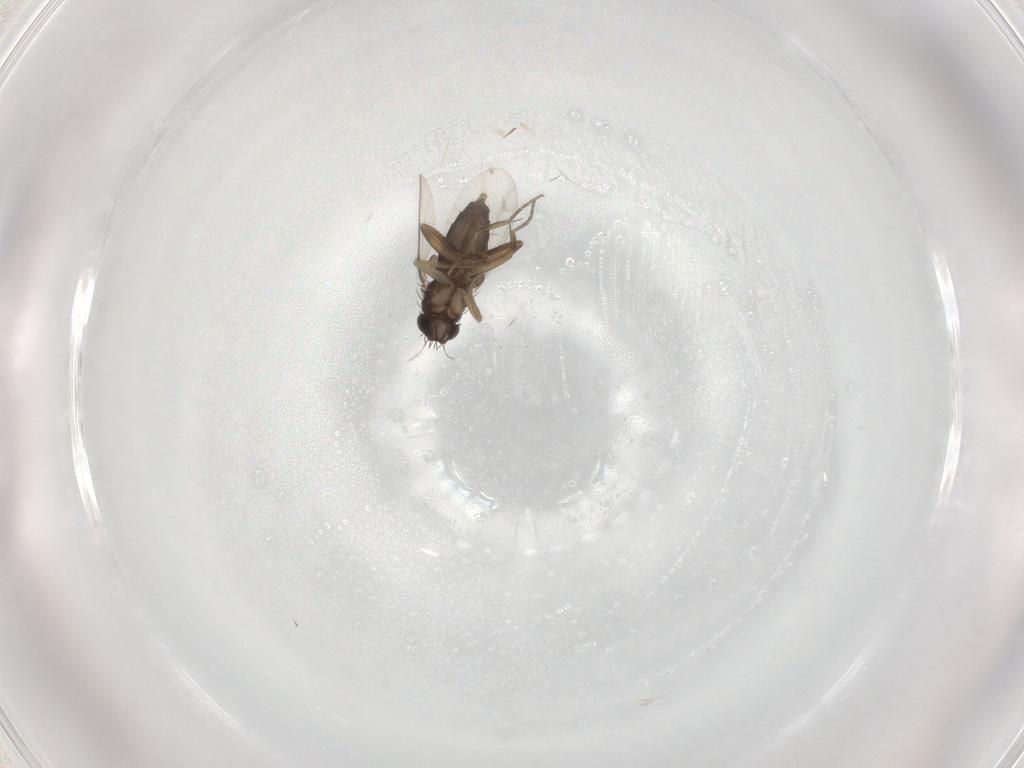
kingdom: Animalia
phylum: Arthropoda
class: Insecta
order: Diptera
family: Phoridae
